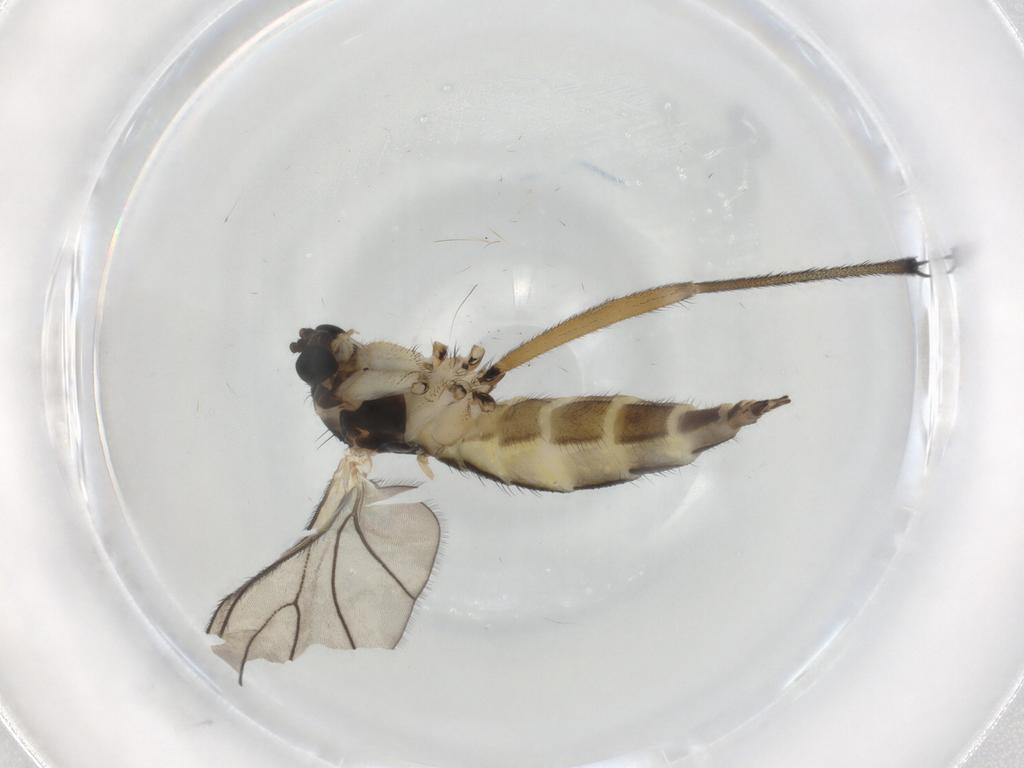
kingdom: Animalia
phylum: Arthropoda
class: Insecta
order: Diptera
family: Sciaridae
